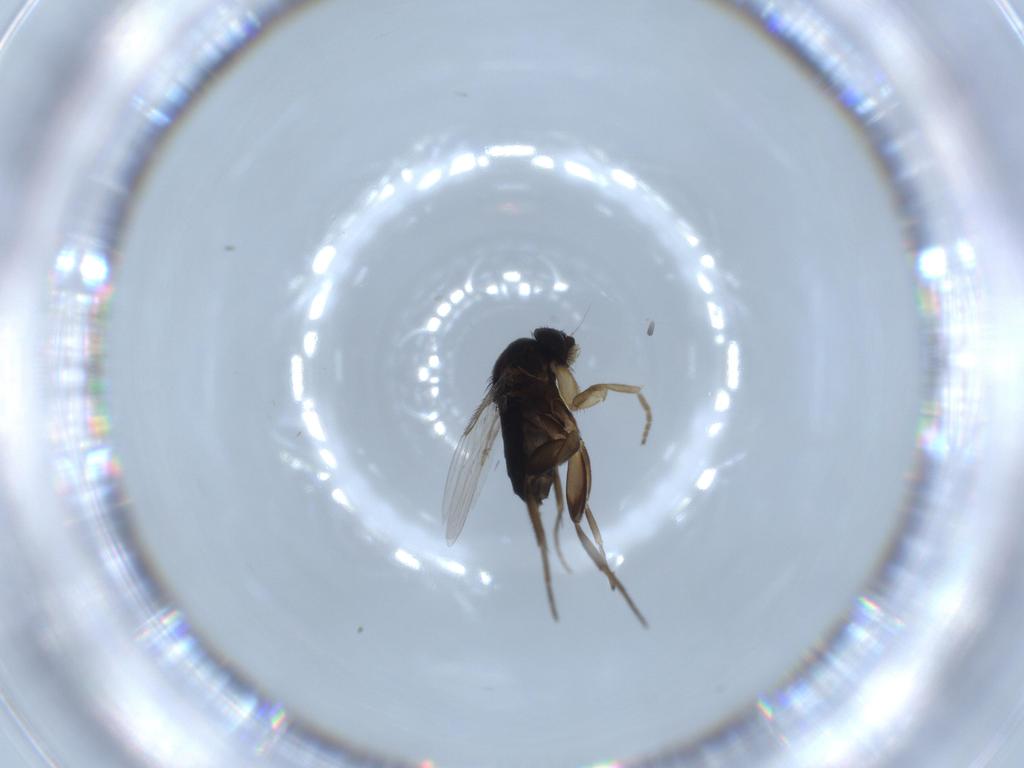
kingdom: Animalia
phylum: Arthropoda
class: Insecta
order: Diptera
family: Phoridae
